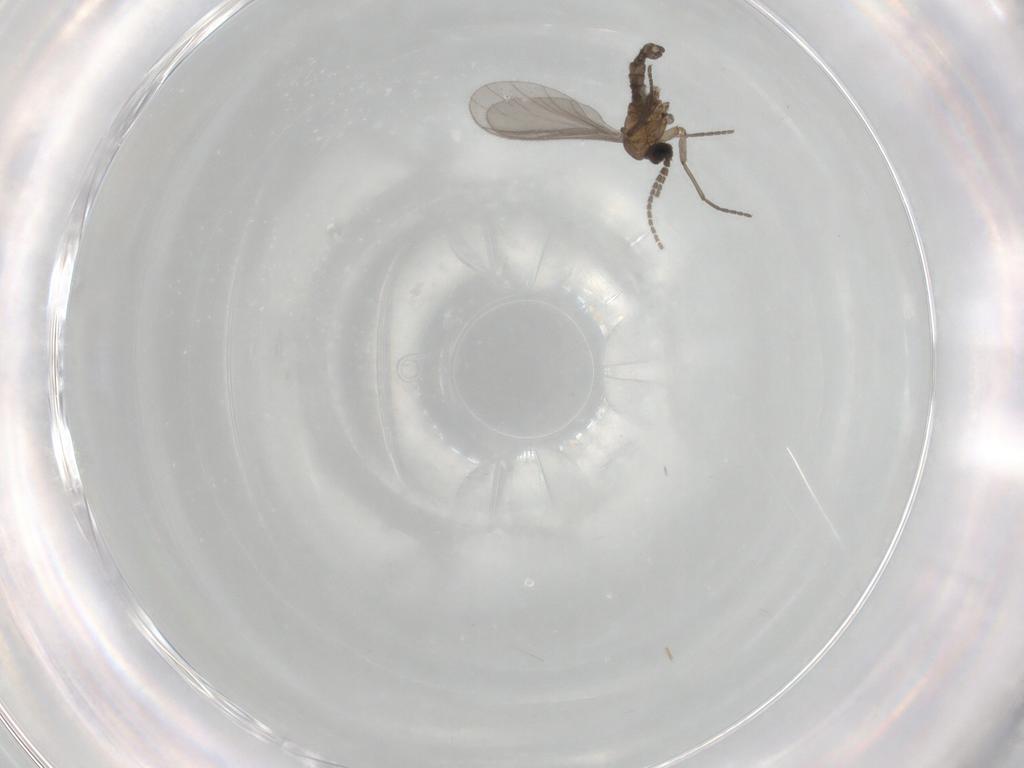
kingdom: Animalia
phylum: Arthropoda
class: Insecta
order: Diptera
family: Sciaridae
